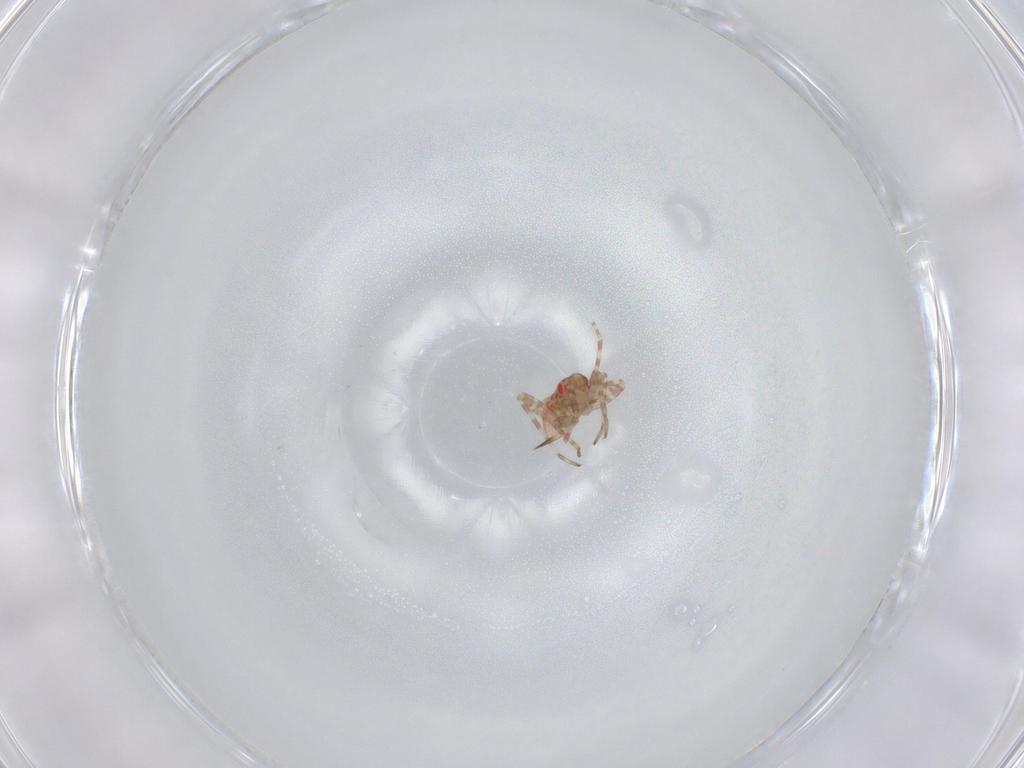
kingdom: Animalia
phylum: Arthropoda
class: Insecta
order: Hemiptera
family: Miridae
